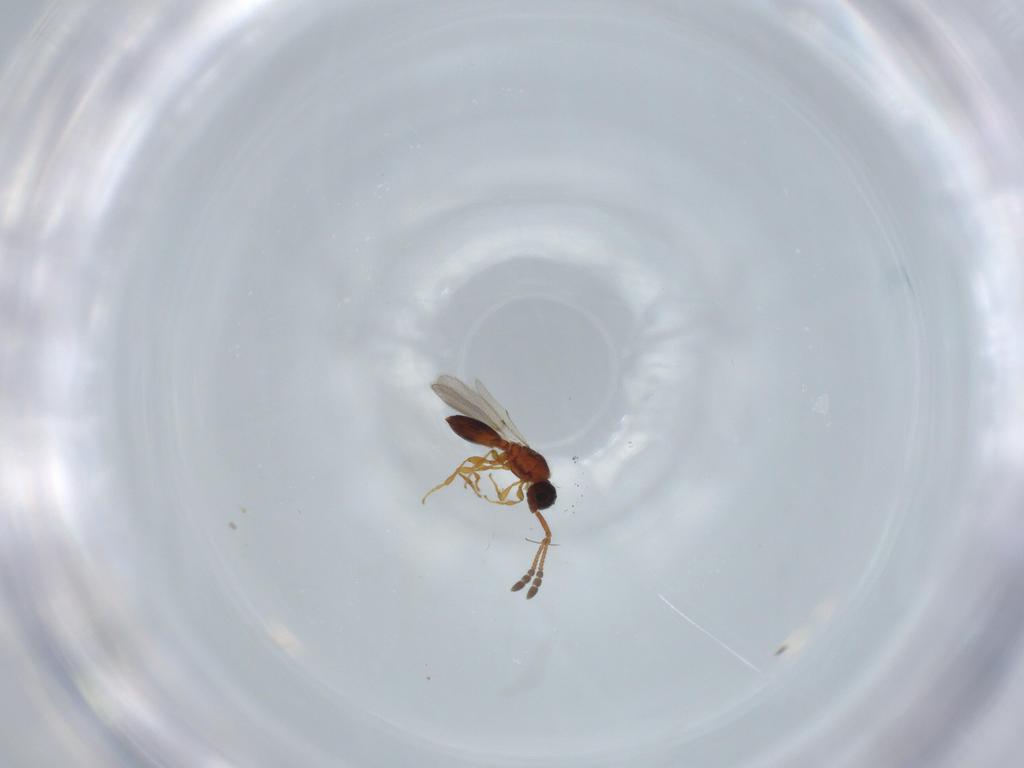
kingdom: Animalia
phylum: Arthropoda
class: Insecta
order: Hymenoptera
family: Diapriidae
